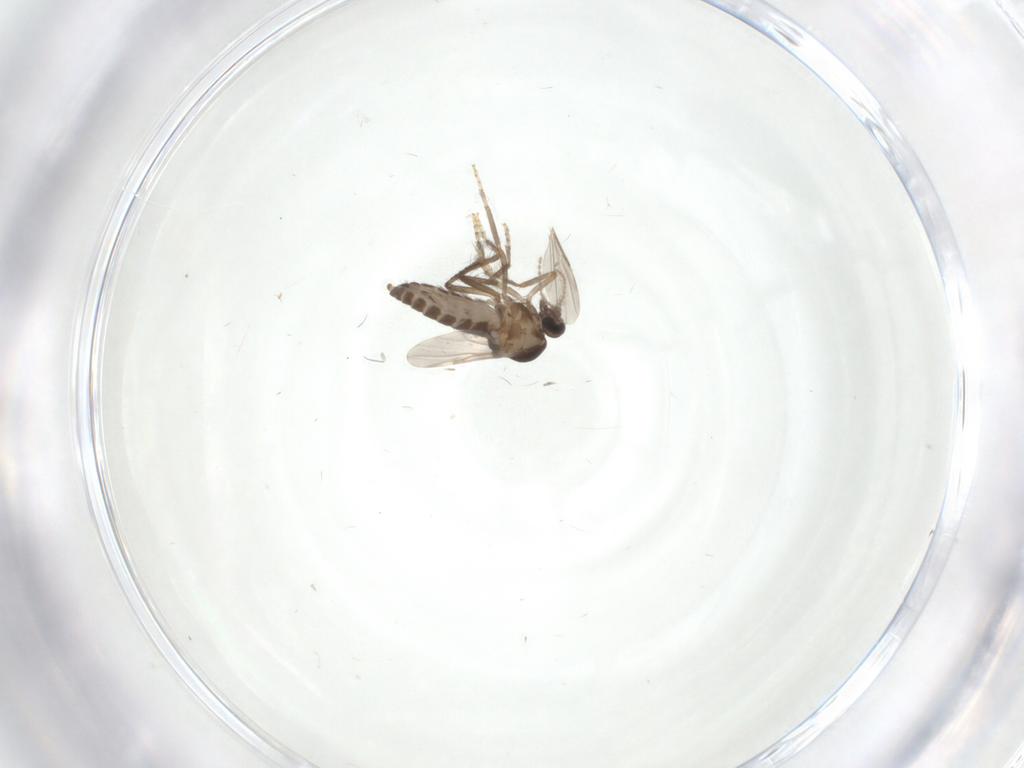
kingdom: Animalia
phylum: Arthropoda
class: Insecta
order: Diptera
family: Ceratopogonidae
